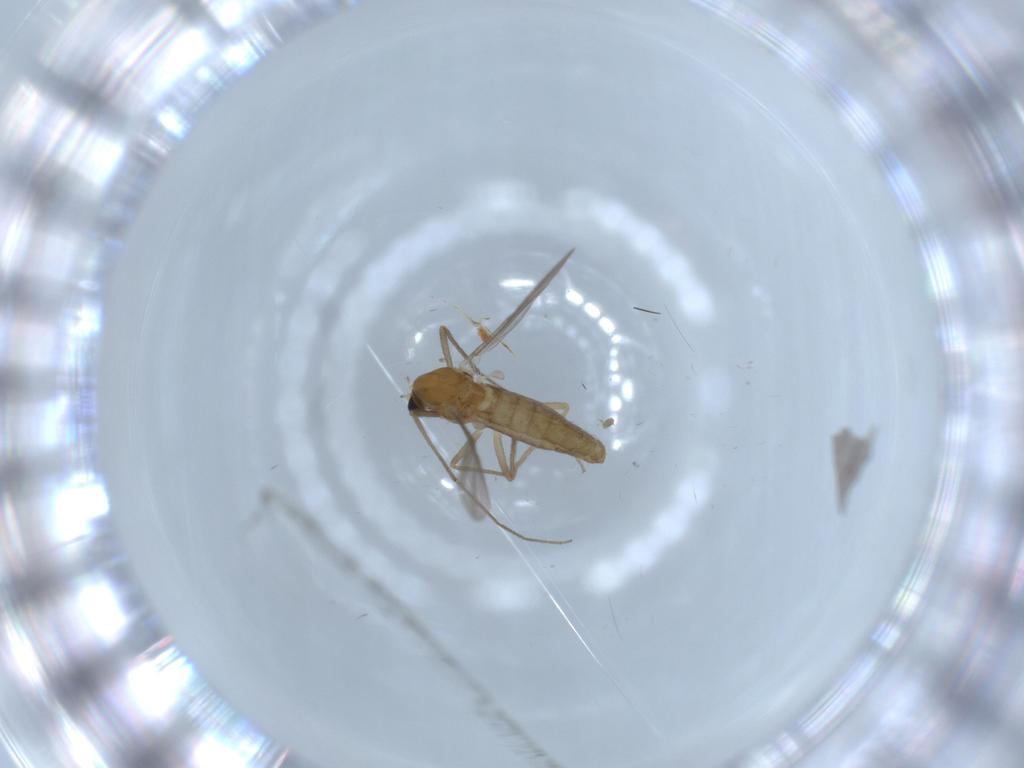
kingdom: Animalia
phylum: Arthropoda
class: Insecta
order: Diptera
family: Chironomidae
